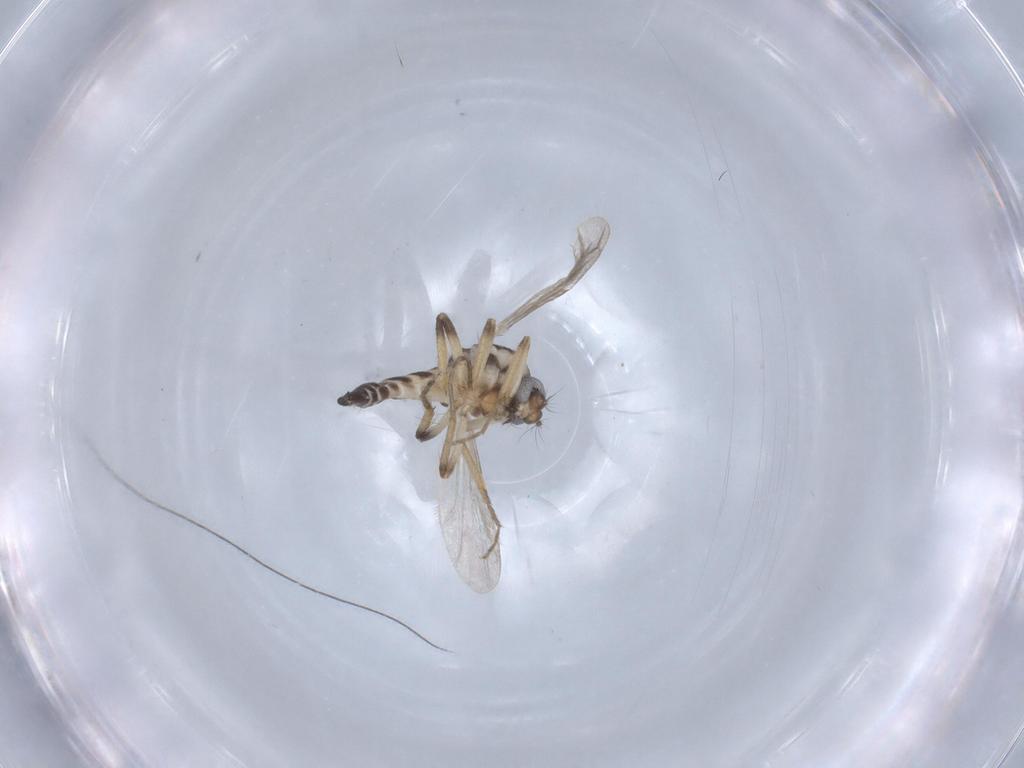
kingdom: Animalia
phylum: Arthropoda
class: Insecta
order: Diptera
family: Ceratopogonidae
